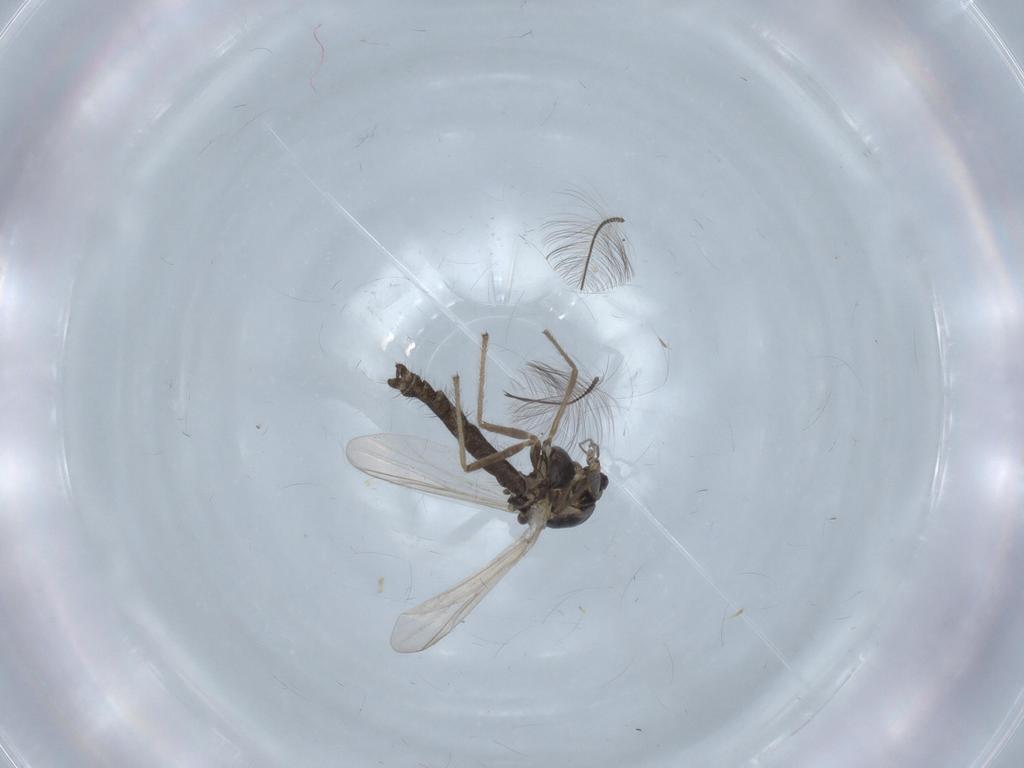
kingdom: Animalia
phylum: Arthropoda
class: Insecta
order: Diptera
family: Chironomidae
